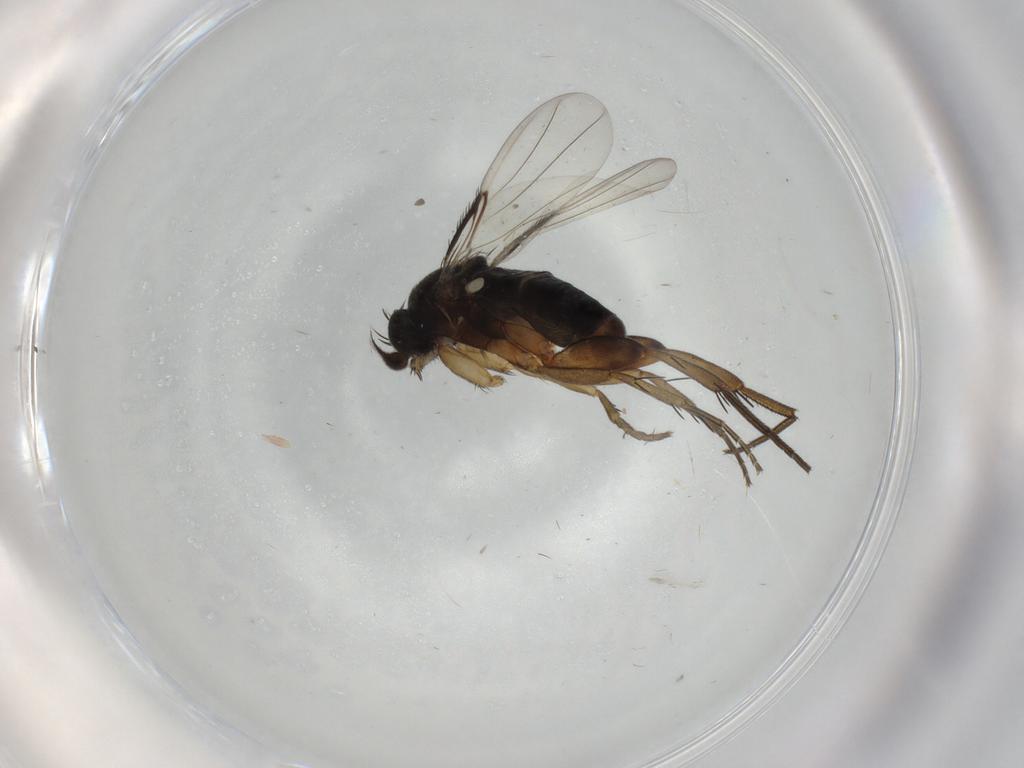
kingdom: Animalia
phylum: Arthropoda
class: Insecta
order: Diptera
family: Phoridae
